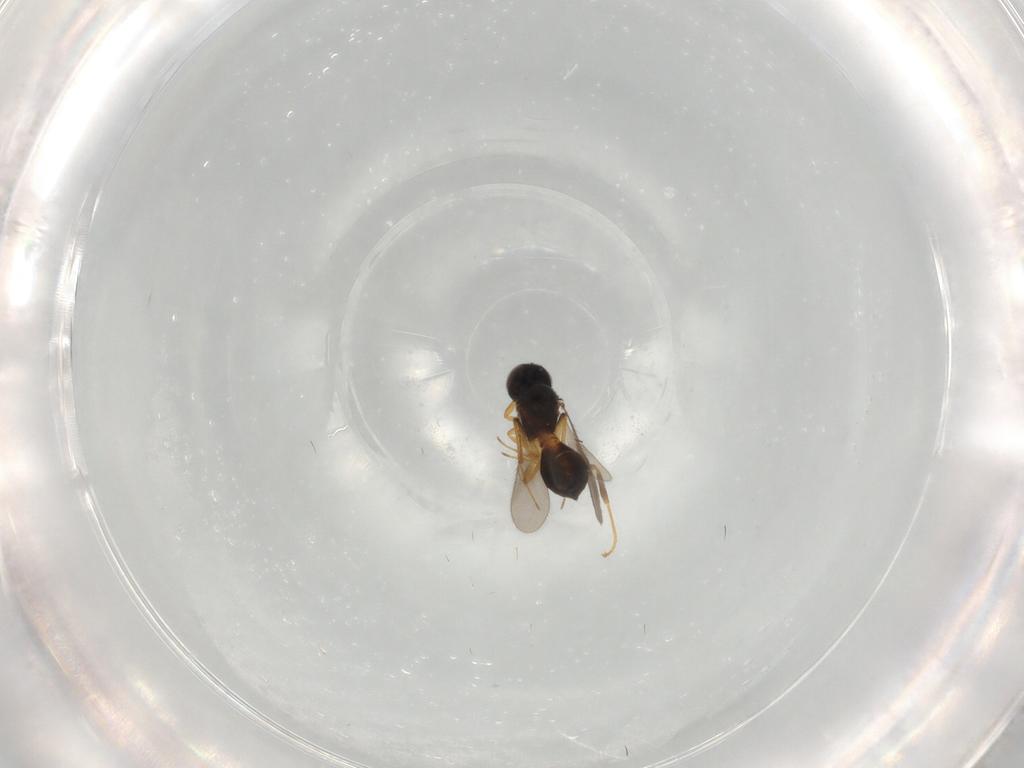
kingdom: Animalia
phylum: Arthropoda
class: Insecta
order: Hymenoptera
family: Scelionidae
